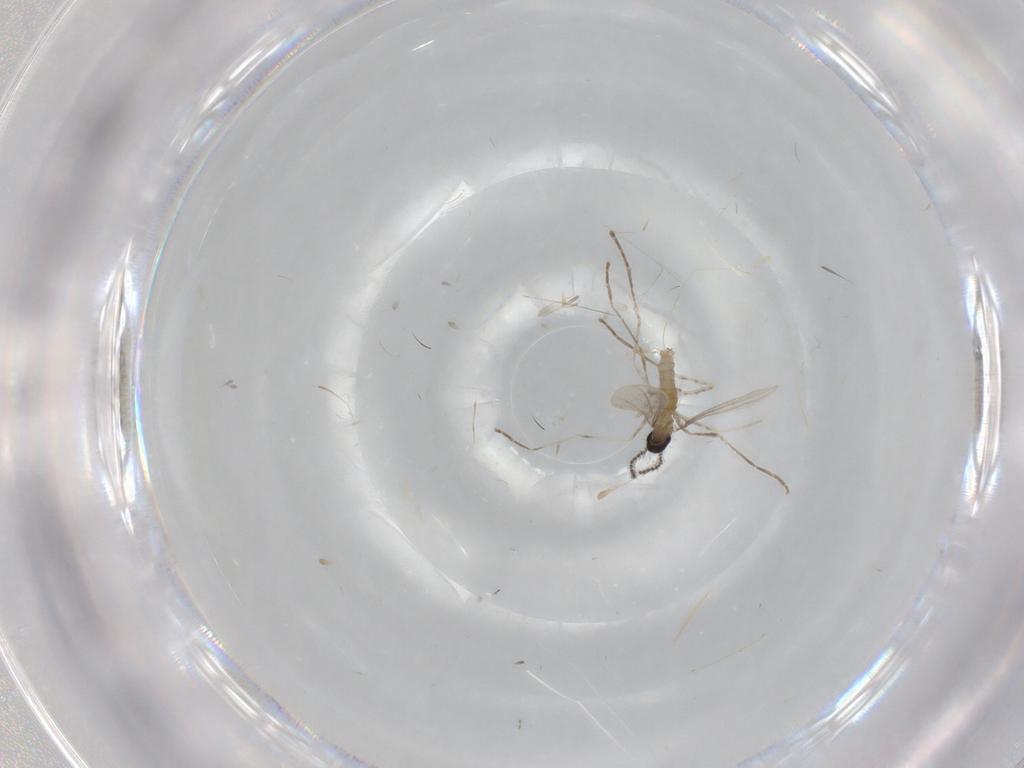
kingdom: Animalia
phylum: Arthropoda
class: Insecta
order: Diptera
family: Cecidomyiidae
